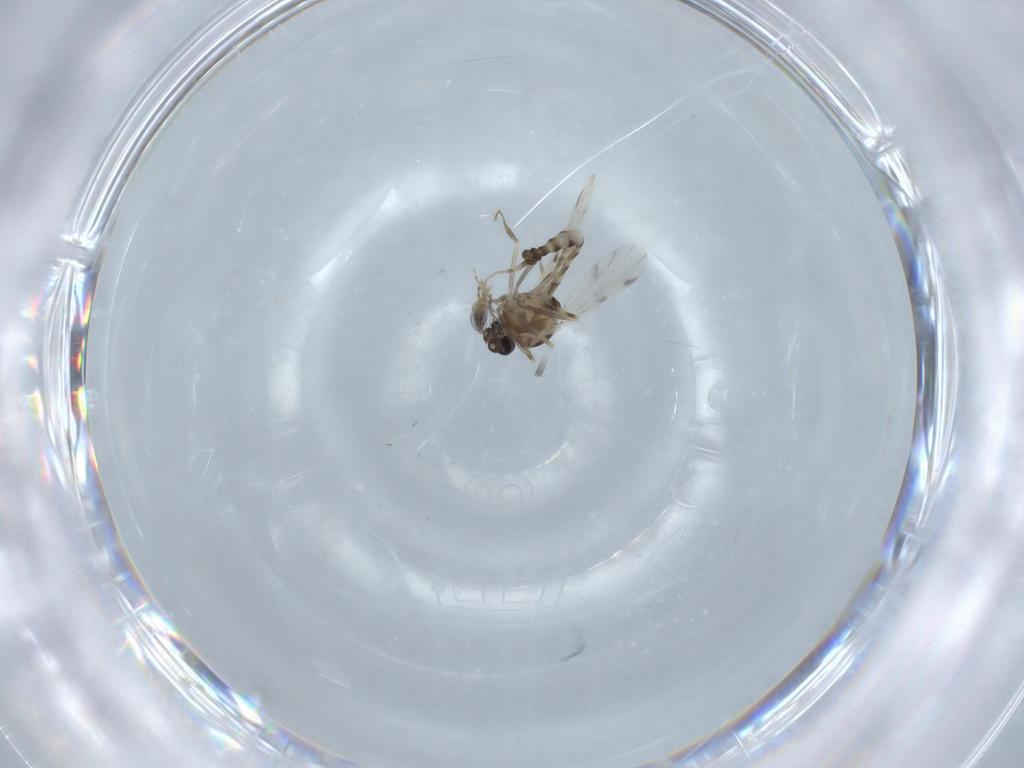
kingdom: Animalia
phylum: Arthropoda
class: Insecta
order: Diptera
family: Ceratopogonidae
